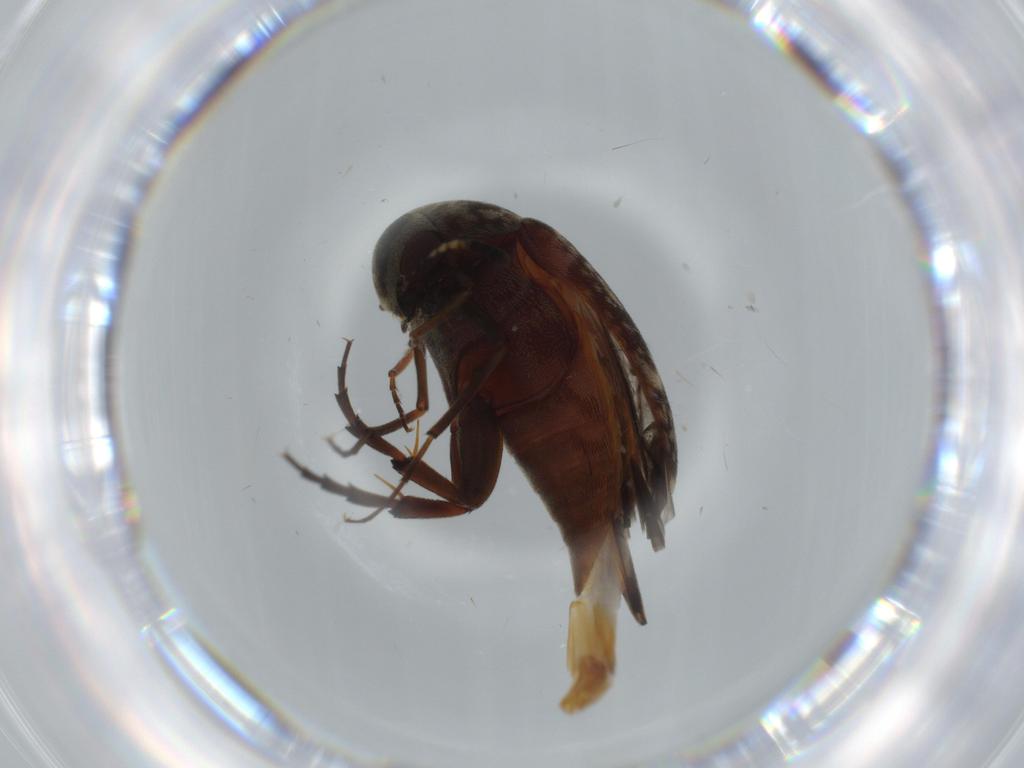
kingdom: Animalia
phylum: Arthropoda
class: Insecta
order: Coleoptera
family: Mordellidae
